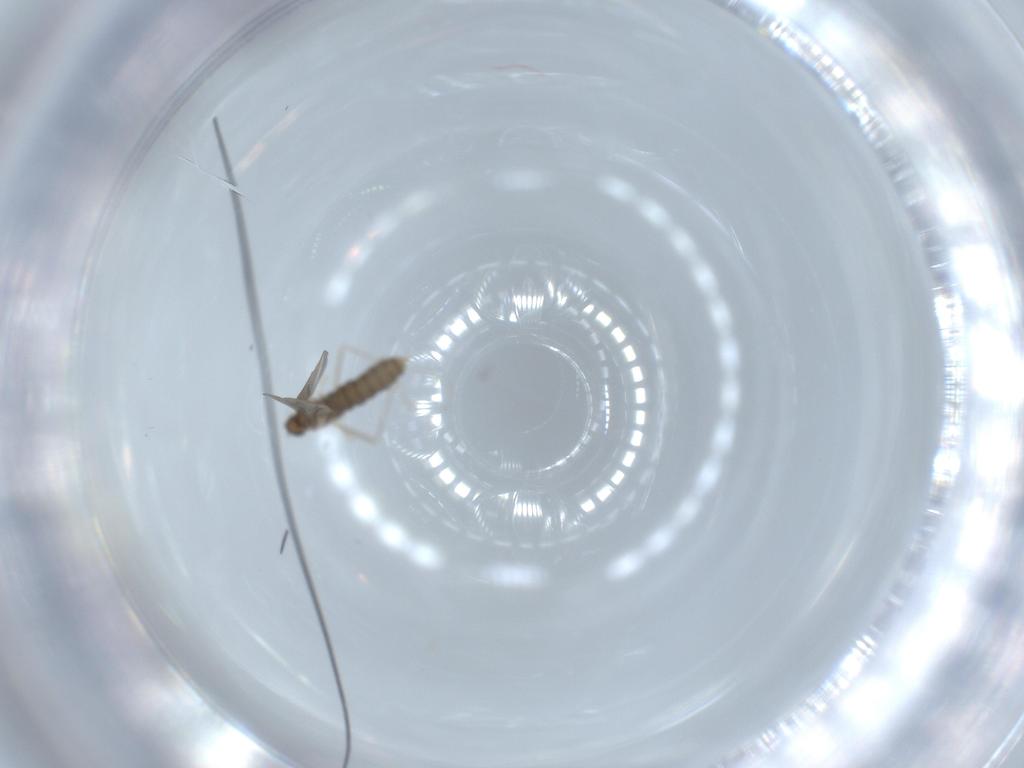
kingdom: Animalia
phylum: Arthropoda
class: Insecta
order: Diptera
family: Cecidomyiidae
